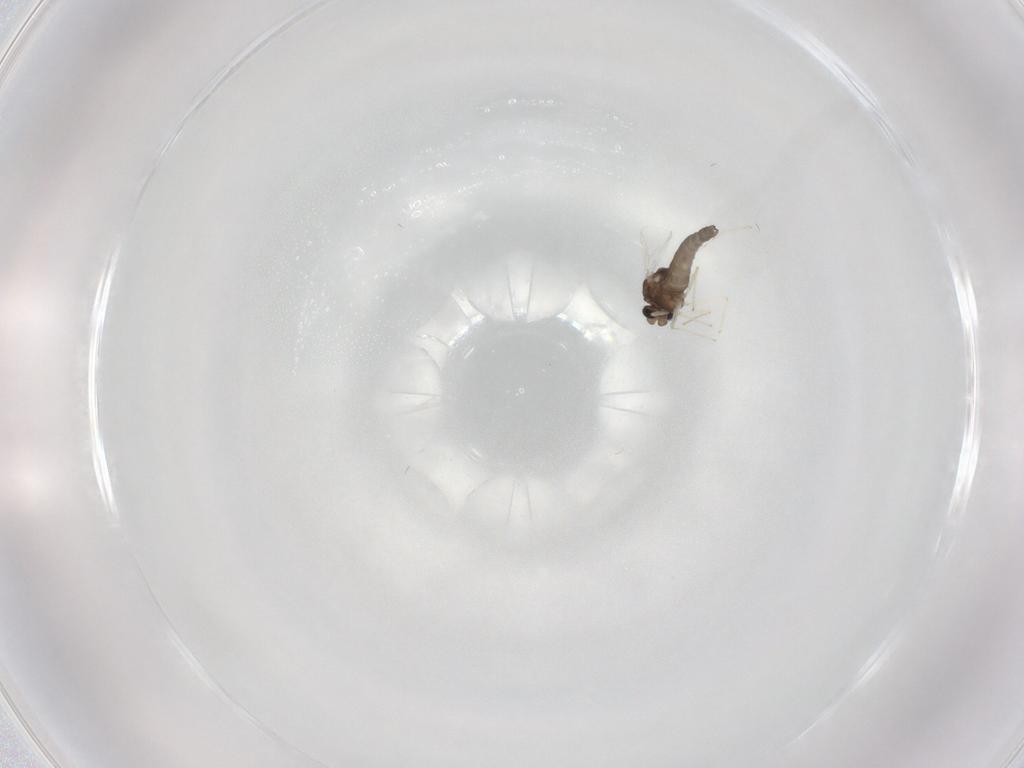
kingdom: Animalia
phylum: Arthropoda
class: Insecta
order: Diptera
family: Chironomidae
